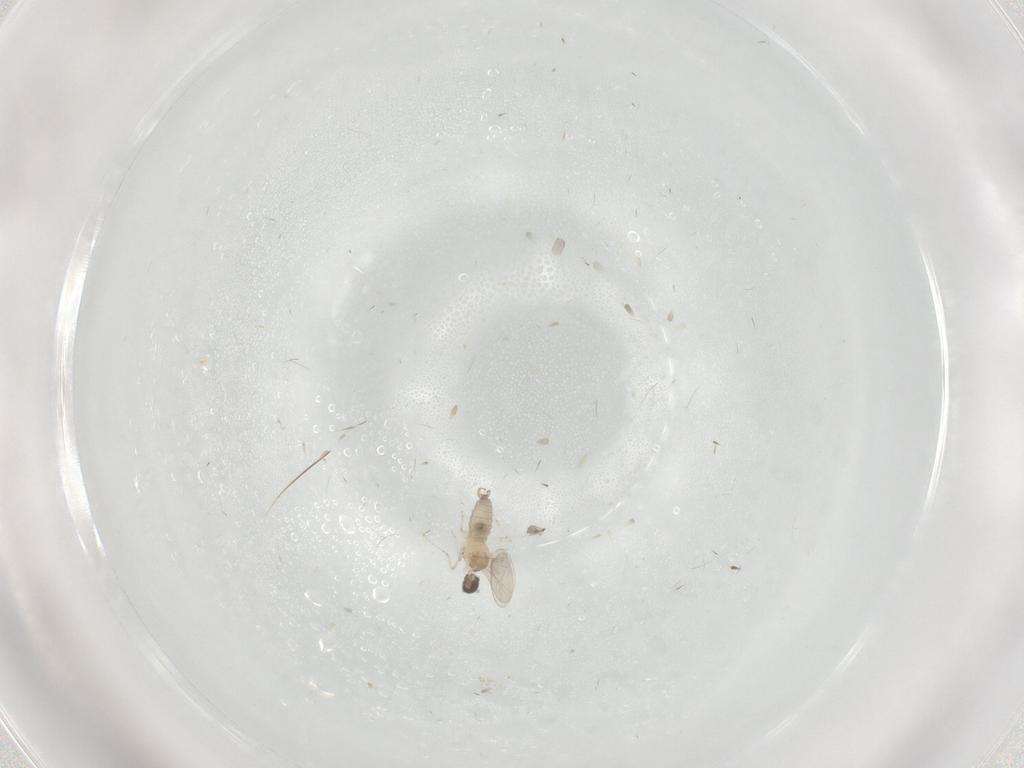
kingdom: Animalia
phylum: Arthropoda
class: Insecta
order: Diptera
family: Cecidomyiidae
